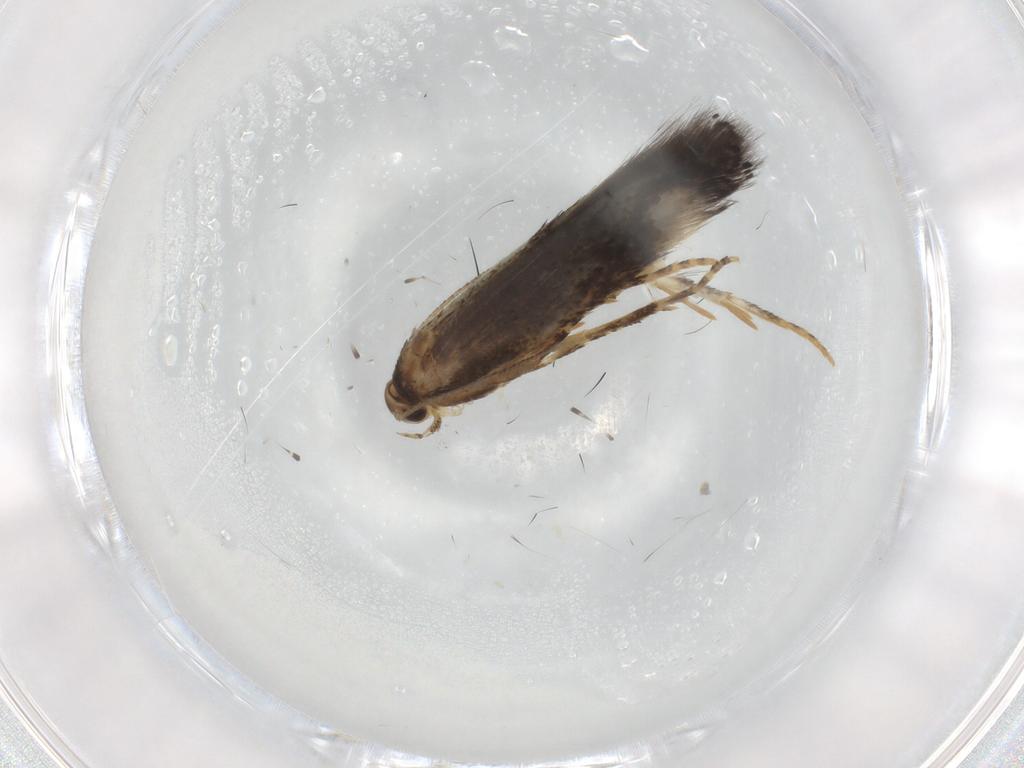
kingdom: Animalia
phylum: Arthropoda
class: Insecta
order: Lepidoptera
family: Elachistidae
